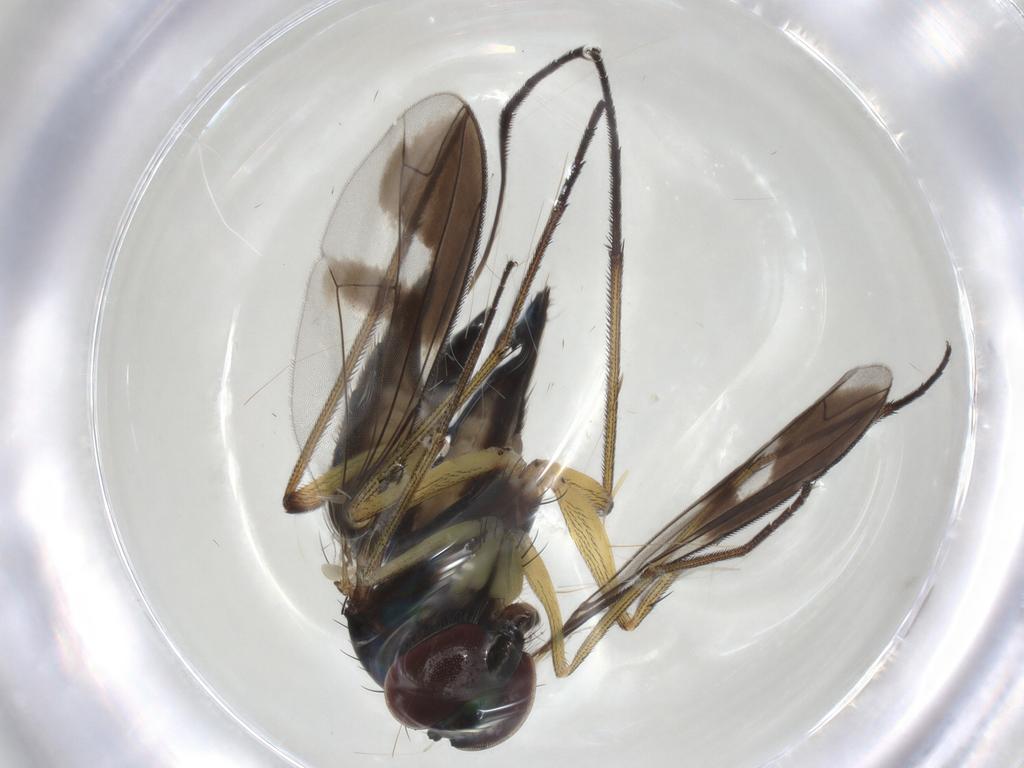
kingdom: Animalia
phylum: Arthropoda
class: Insecta
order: Diptera
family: Dolichopodidae
